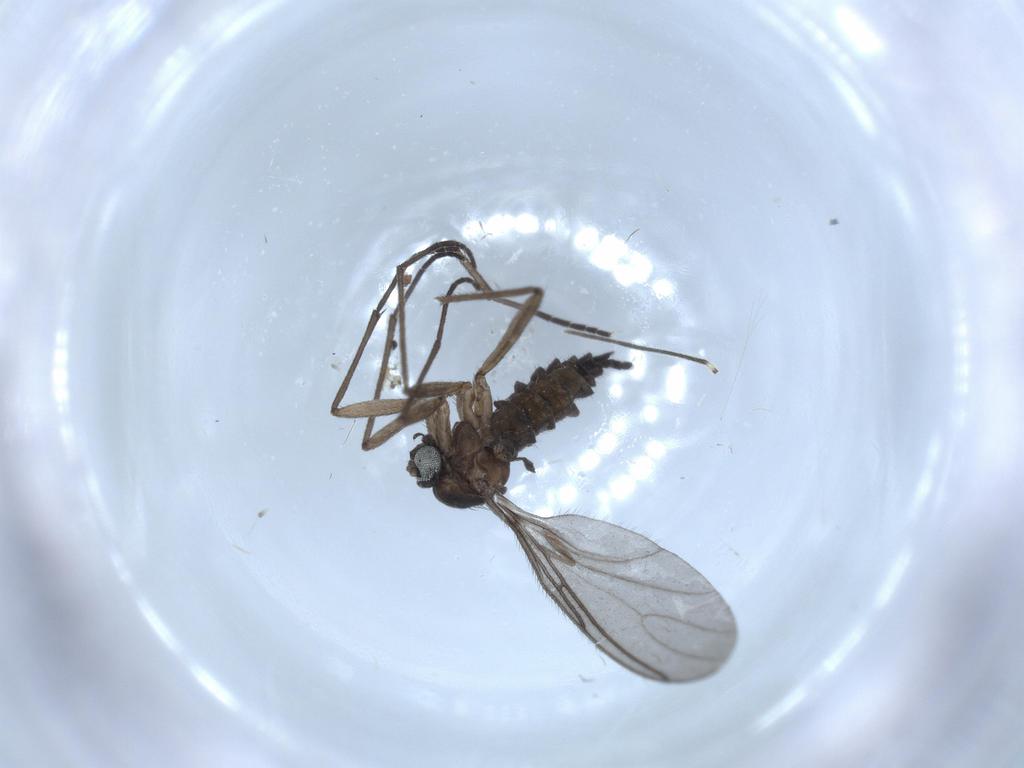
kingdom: Animalia
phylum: Arthropoda
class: Insecta
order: Diptera
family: Sciaridae
